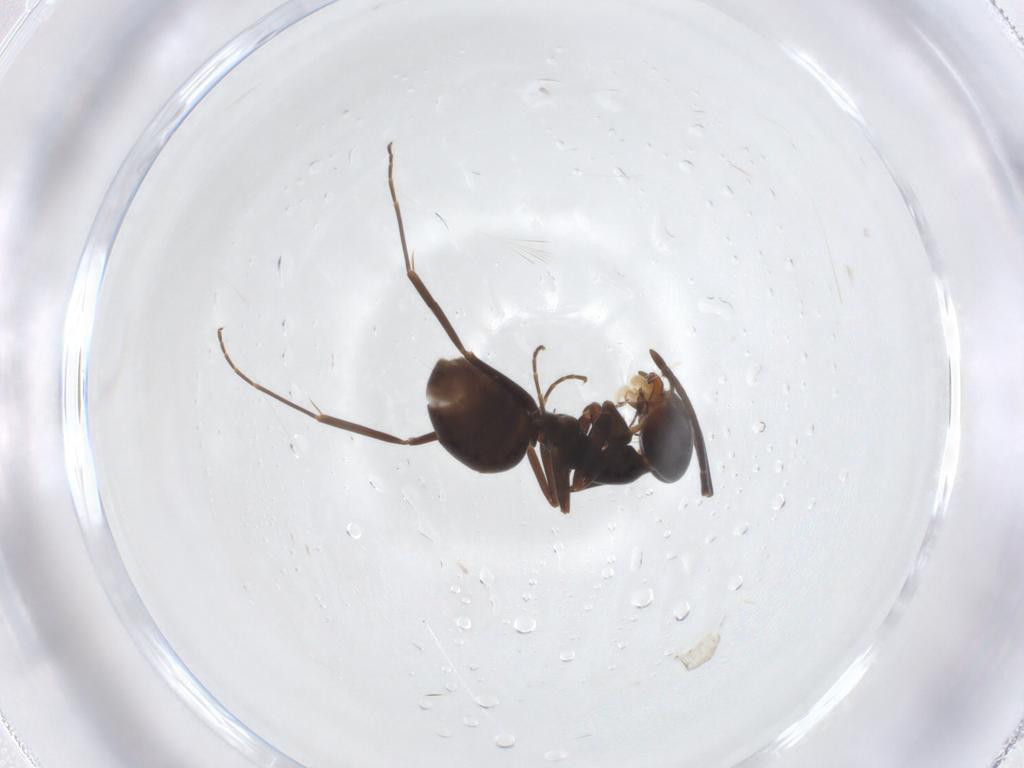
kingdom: Animalia
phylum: Arthropoda
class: Insecta
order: Hymenoptera
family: Formicidae
